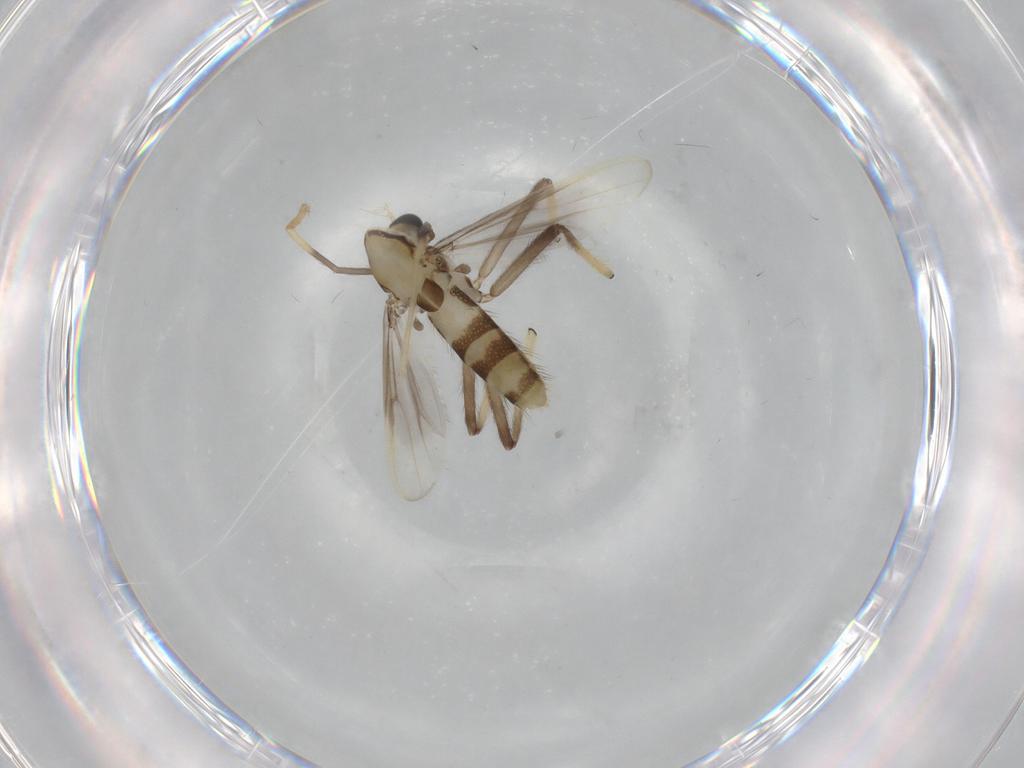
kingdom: Animalia
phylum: Arthropoda
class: Insecta
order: Diptera
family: Chironomidae
